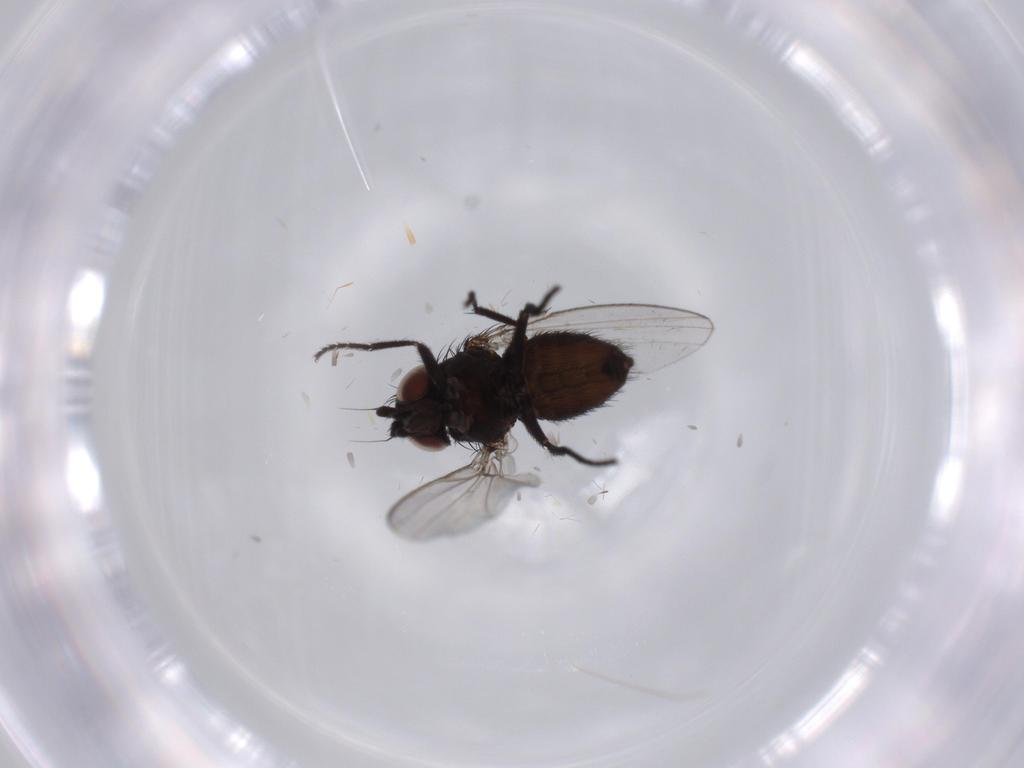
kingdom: Animalia
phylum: Arthropoda
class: Insecta
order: Diptera
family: Milichiidae
